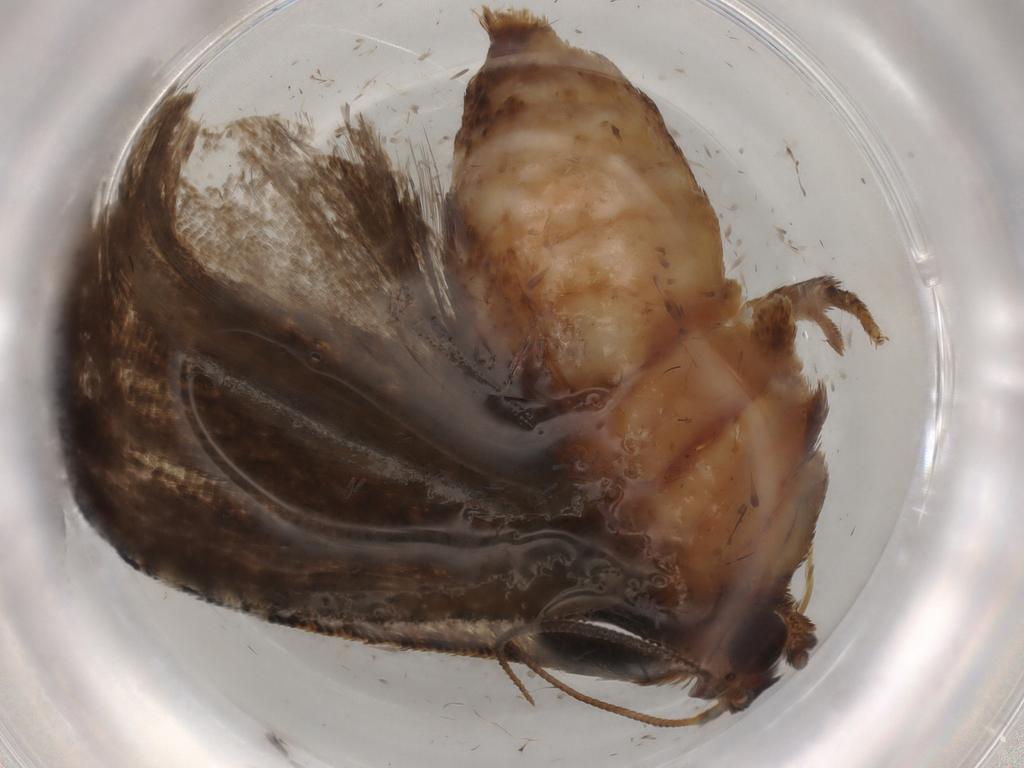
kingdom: Animalia
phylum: Arthropoda
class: Insecta
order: Lepidoptera
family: Tortricidae
